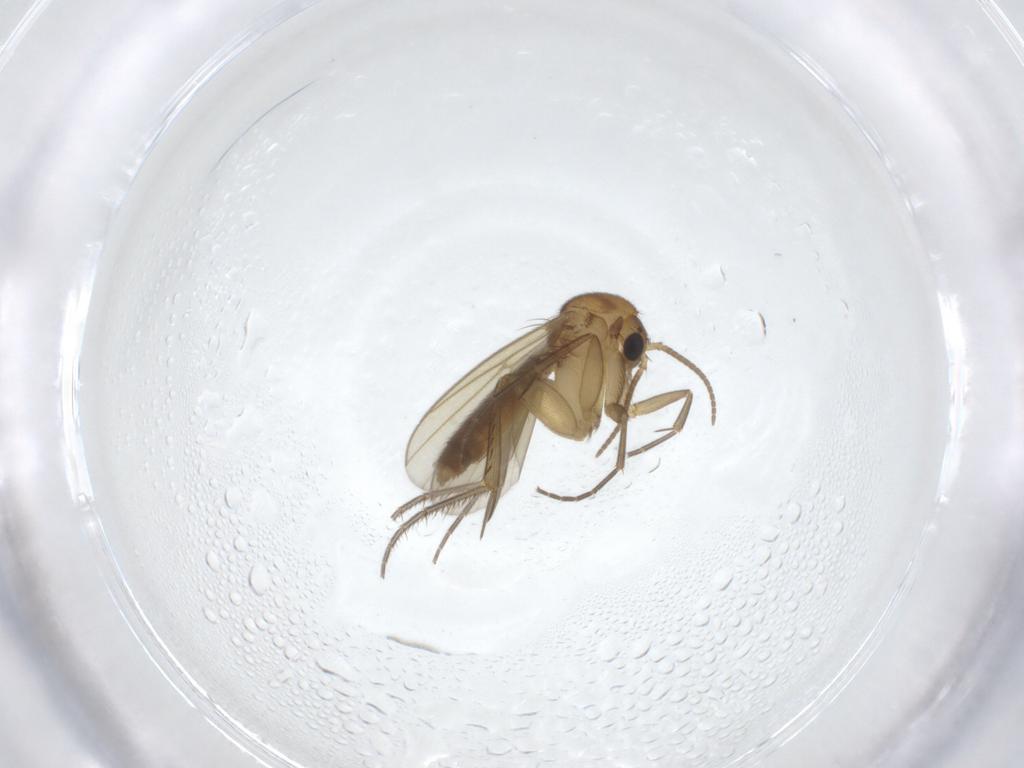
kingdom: Animalia
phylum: Arthropoda
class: Insecta
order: Diptera
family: Mycetophilidae
